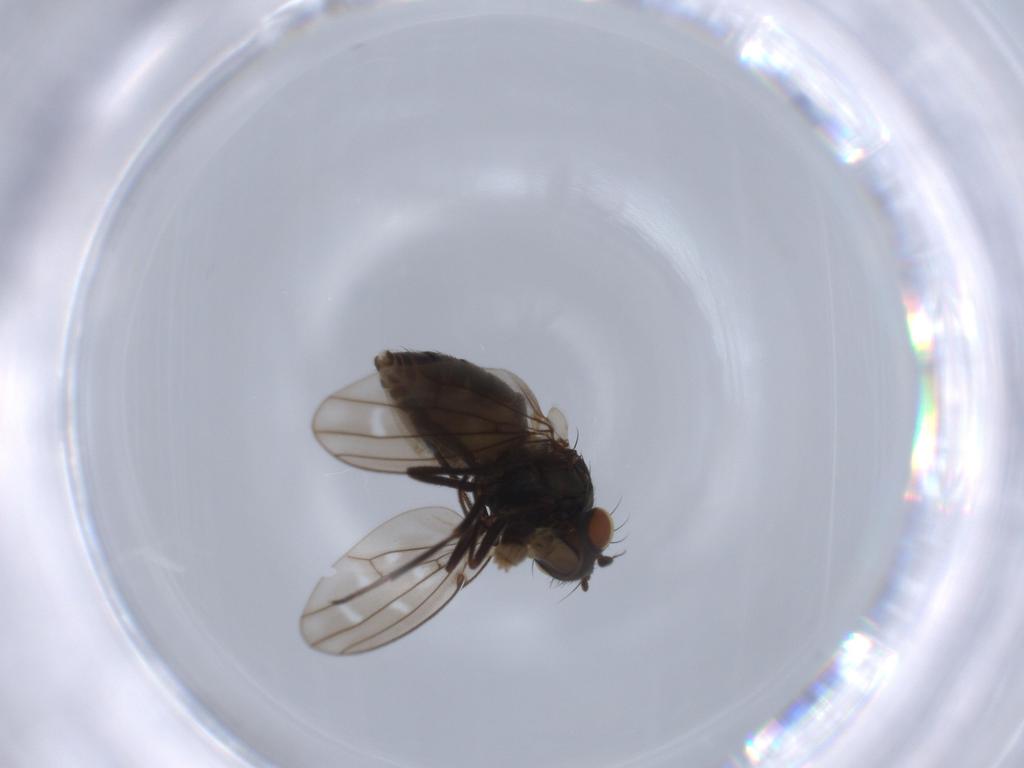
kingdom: Animalia
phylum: Arthropoda
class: Insecta
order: Diptera
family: Ephydridae
